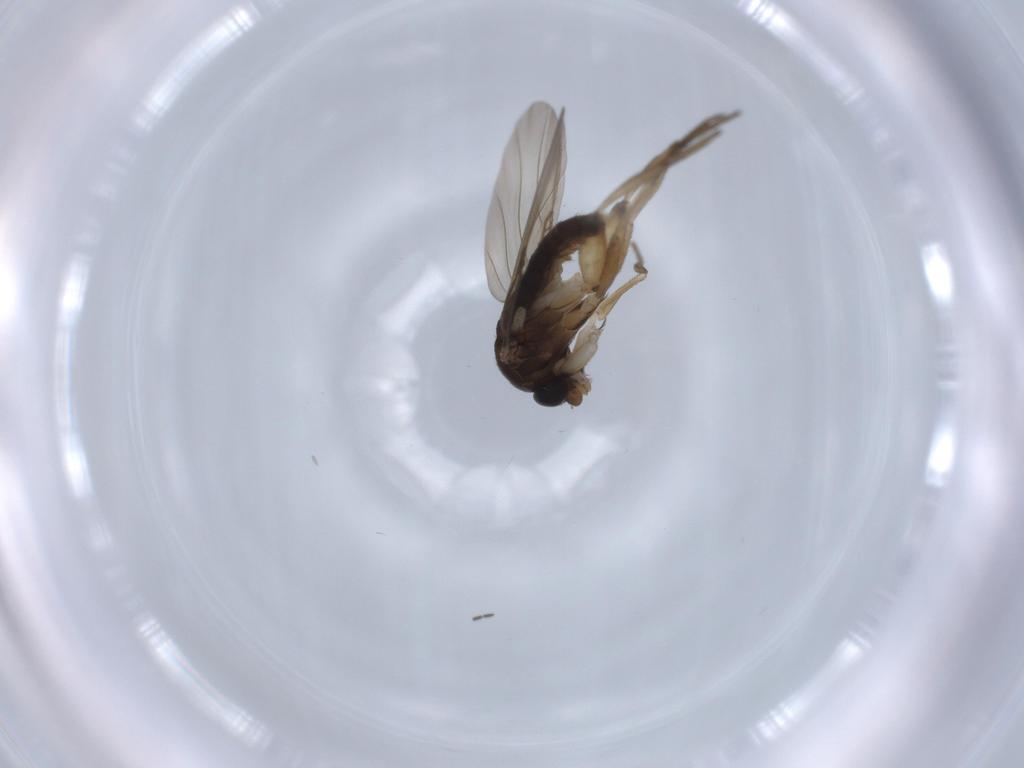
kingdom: Animalia
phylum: Arthropoda
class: Insecta
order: Diptera
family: Phoridae
